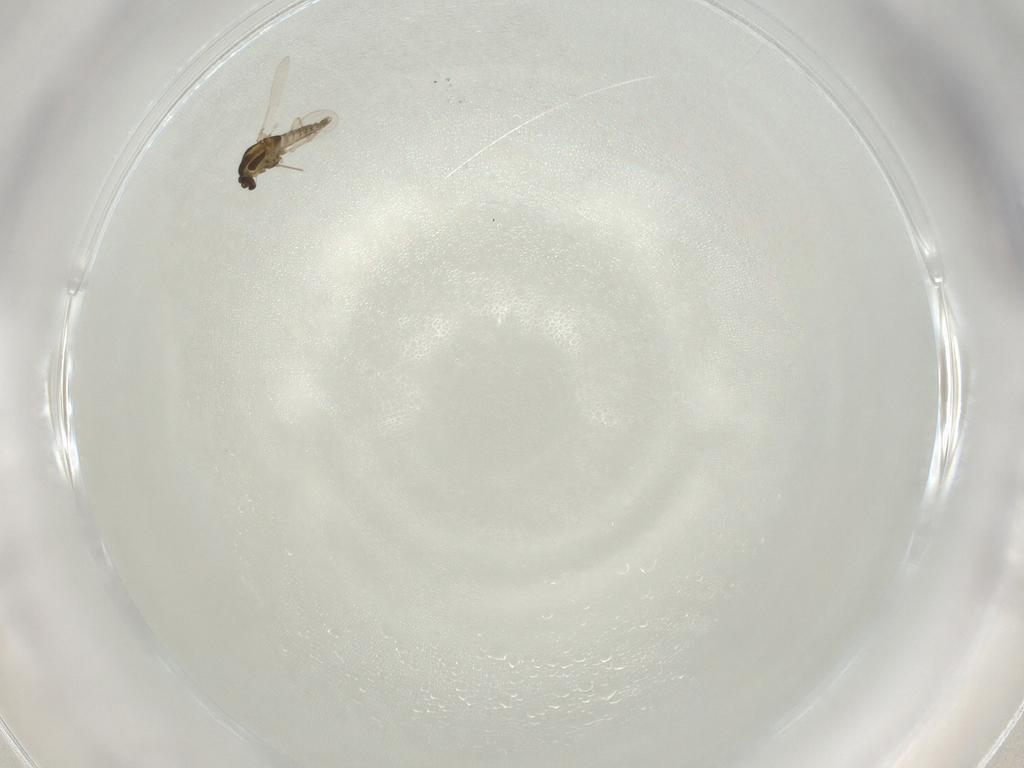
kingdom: Animalia
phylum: Arthropoda
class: Insecta
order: Diptera
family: Chironomidae
